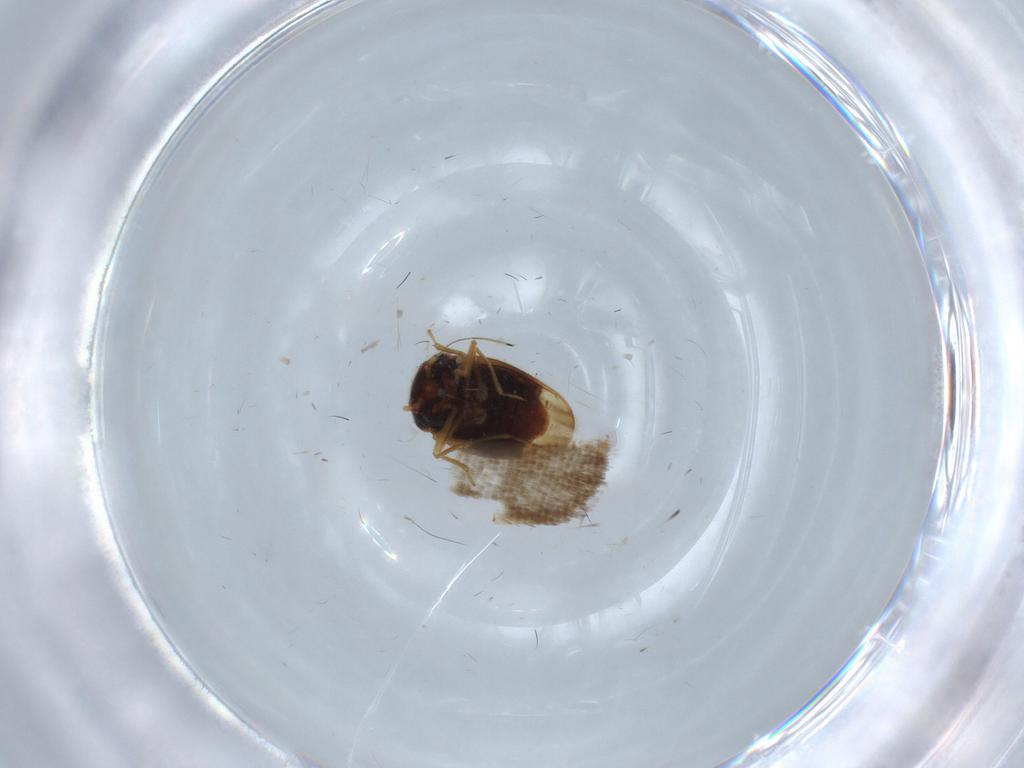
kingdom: Animalia
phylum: Arthropoda
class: Insecta
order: Hemiptera
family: Schizopteridae
